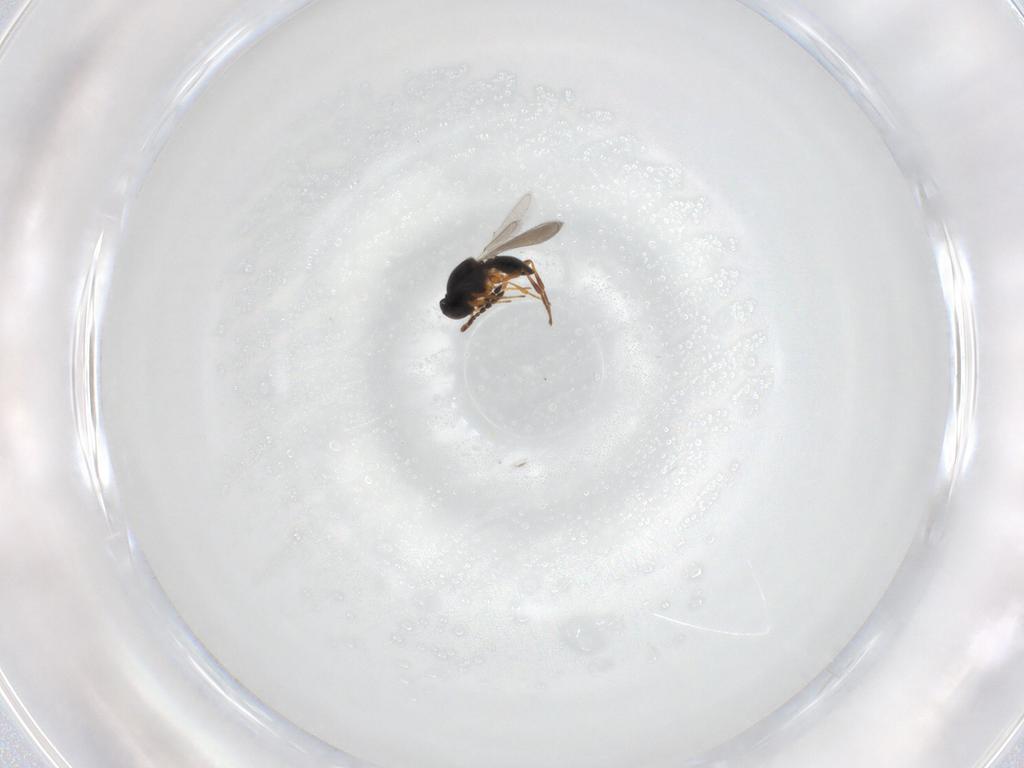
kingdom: Animalia
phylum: Arthropoda
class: Insecta
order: Hymenoptera
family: Platygastridae
